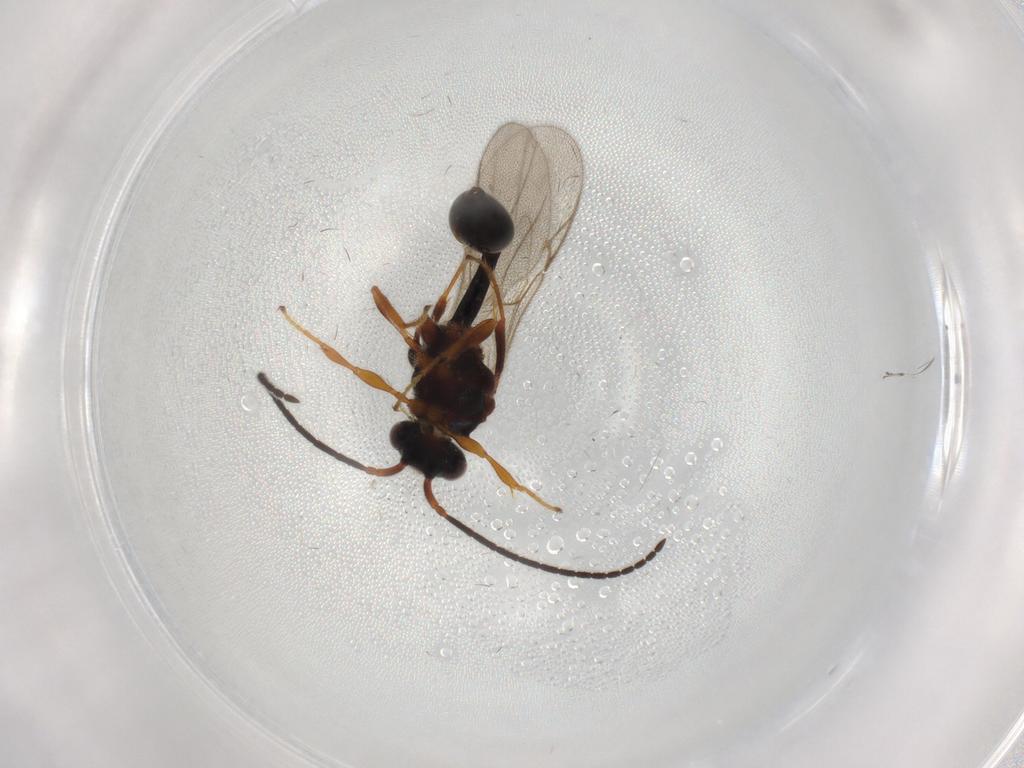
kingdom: Animalia
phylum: Arthropoda
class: Insecta
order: Hymenoptera
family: Diapriidae
